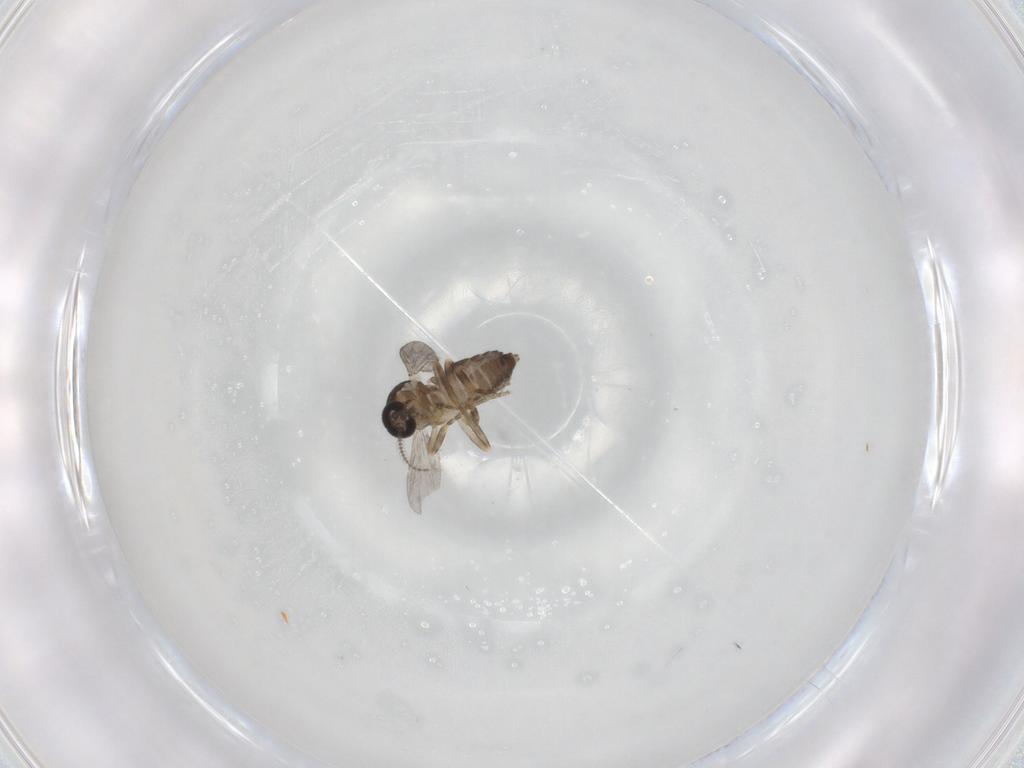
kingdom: Animalia
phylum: Arthropoda
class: Insecta
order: Diptera
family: Ceratopogonidae
